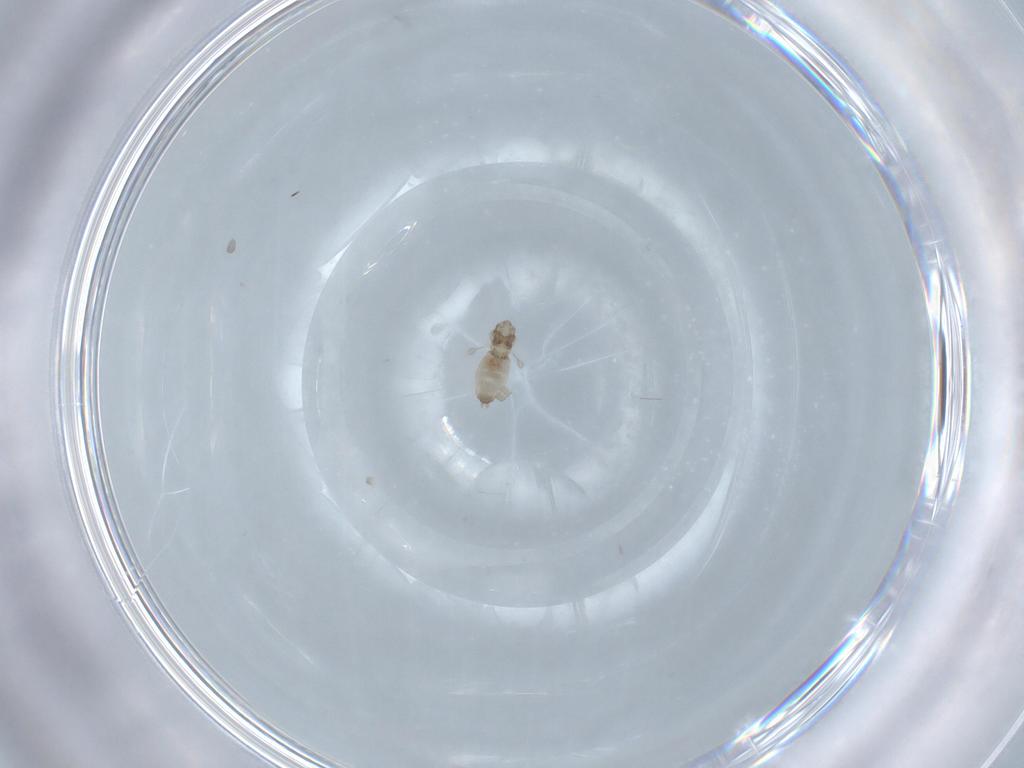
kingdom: Animalia
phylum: Arthropoda
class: Insecta
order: Diptera
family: Cecidomyiidae
